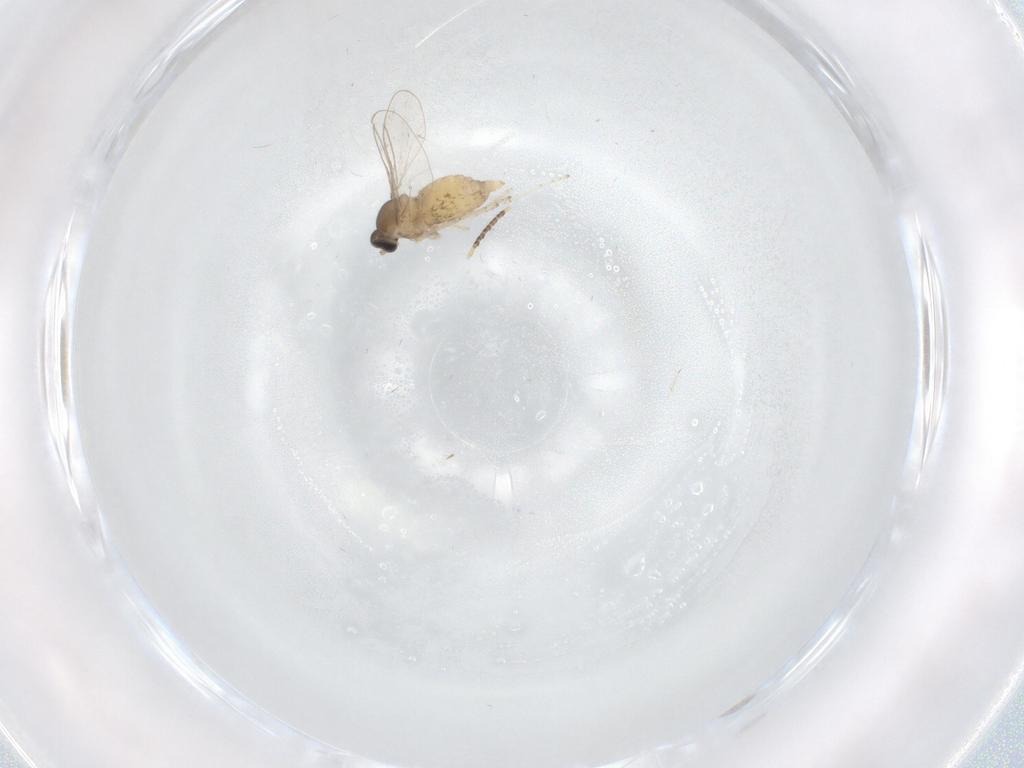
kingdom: Animalia
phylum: Arthropoda
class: Insecta
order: Diptera
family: Cecidomyiidae
